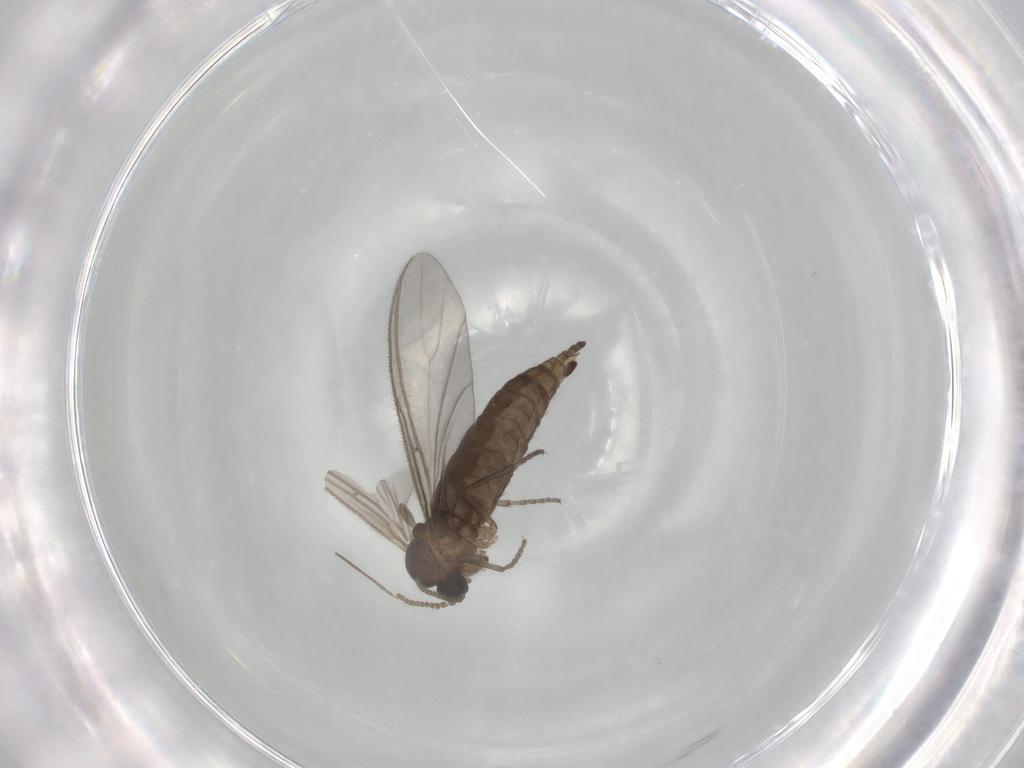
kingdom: Animalia
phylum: Arthropoda
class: Insecta
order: Diptera
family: Sciaridae
